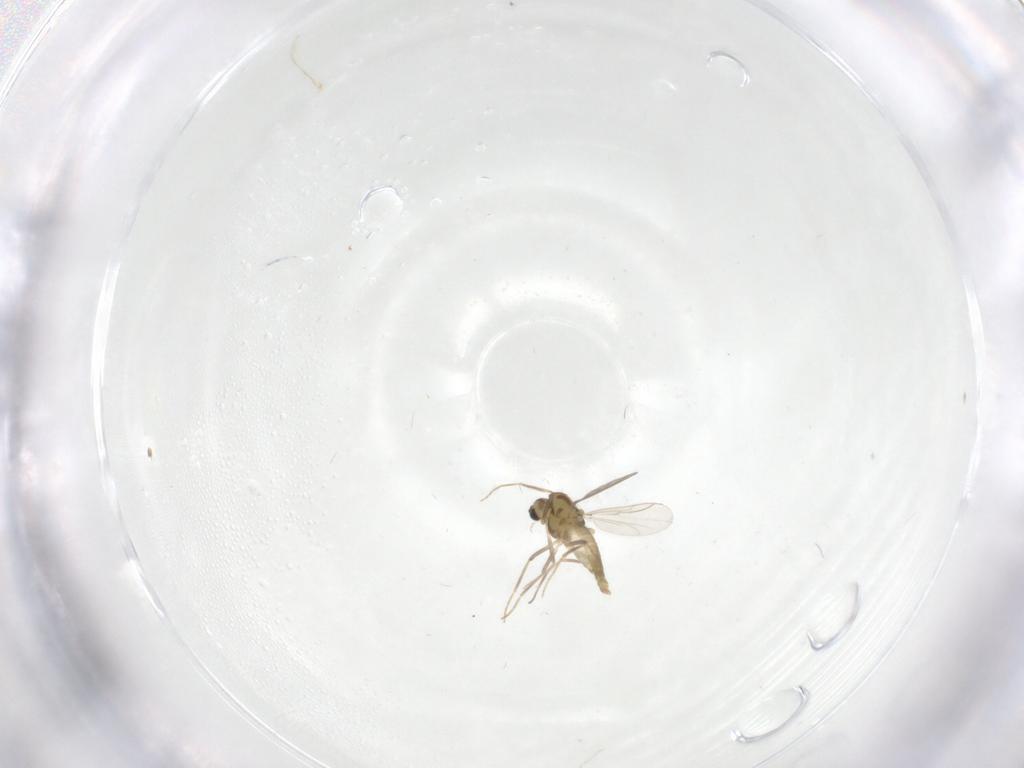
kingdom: Animalia
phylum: Arthropoda
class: Insecta
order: Diptera
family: Chironomidae
